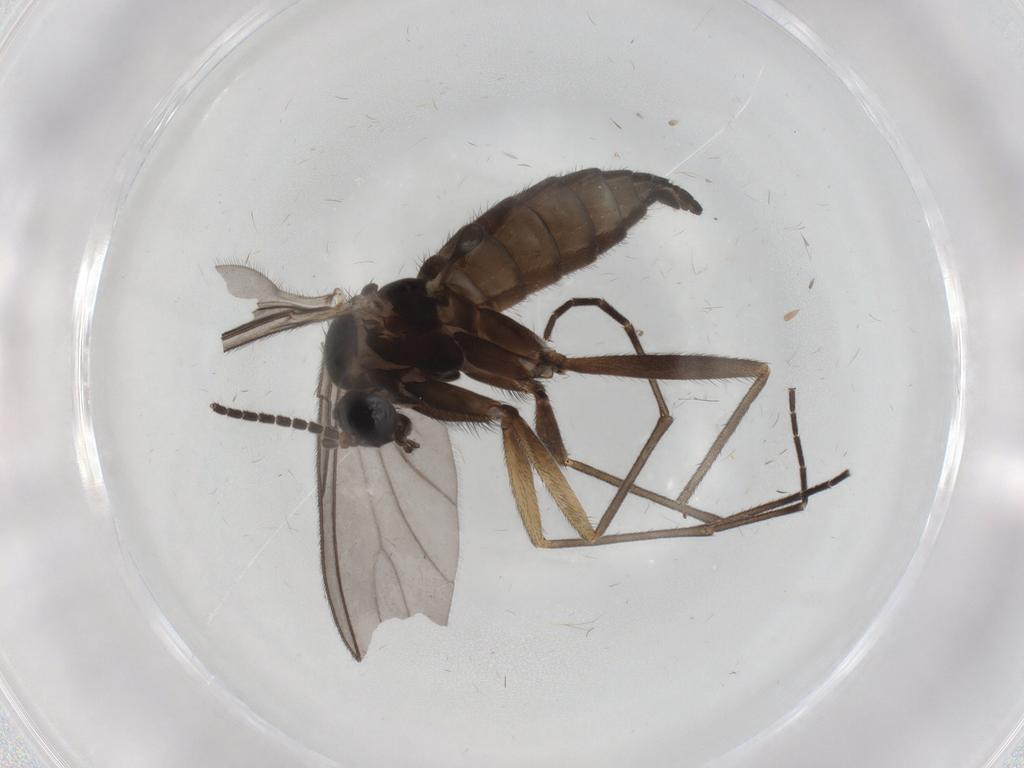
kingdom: Animalia
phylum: Arthropoda
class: Insecta
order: Diptera
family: Sciaridae
